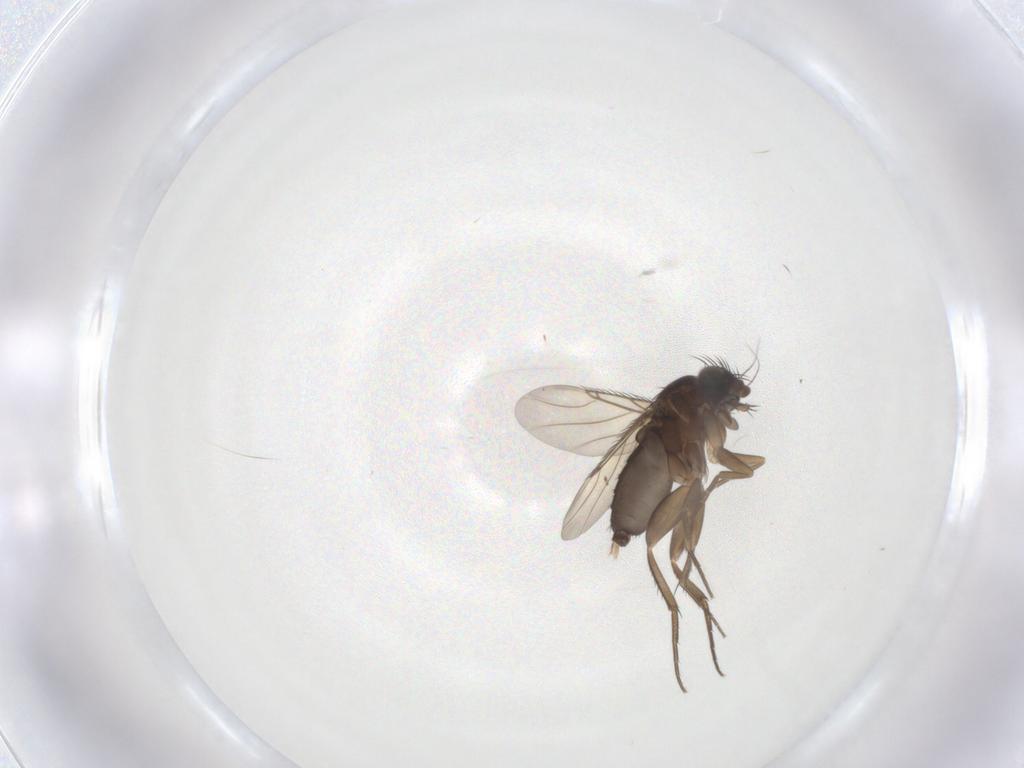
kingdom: Animalia
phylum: Arthropoda
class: Insecta
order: Diptera
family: Phoridae
